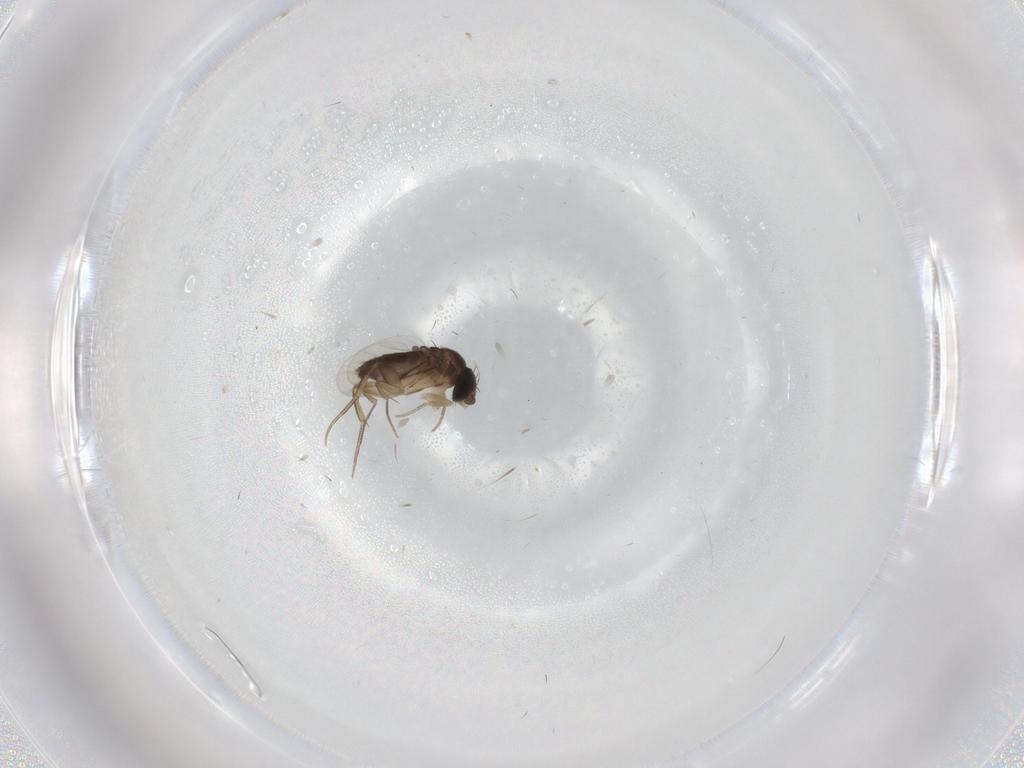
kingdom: Animalia
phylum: Arthropoda
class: Insecta
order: Diptera
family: Phoridae
